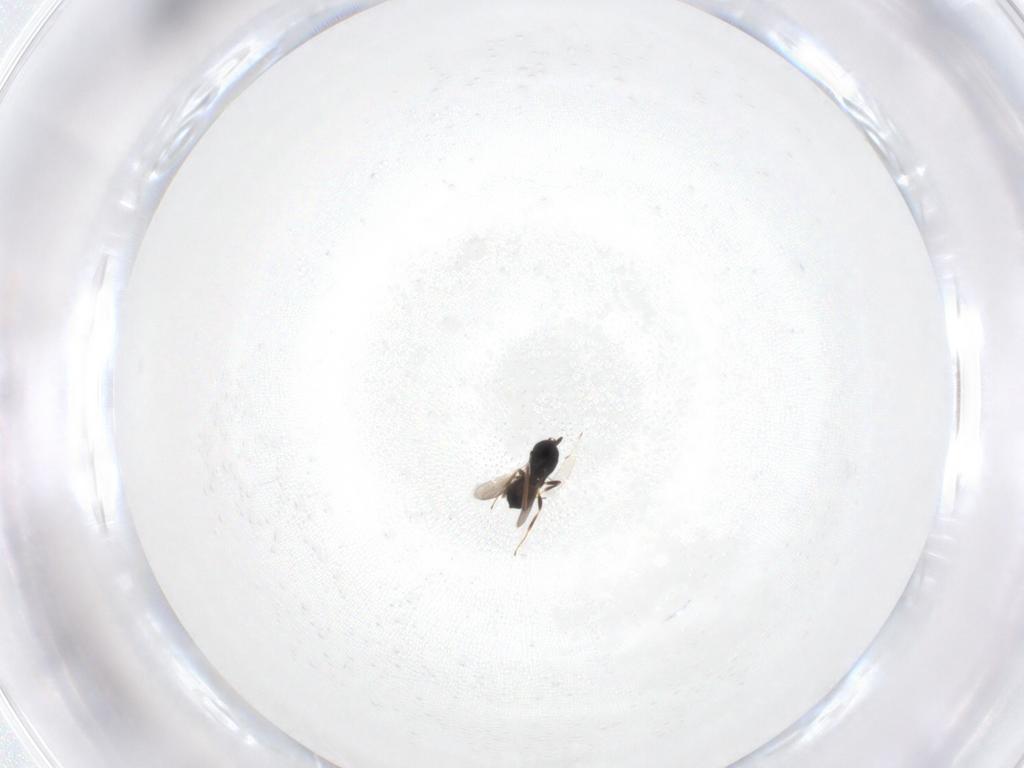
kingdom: Animalia
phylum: Arthropoda
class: Insecta
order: Hymenoptera
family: Scelionidae
